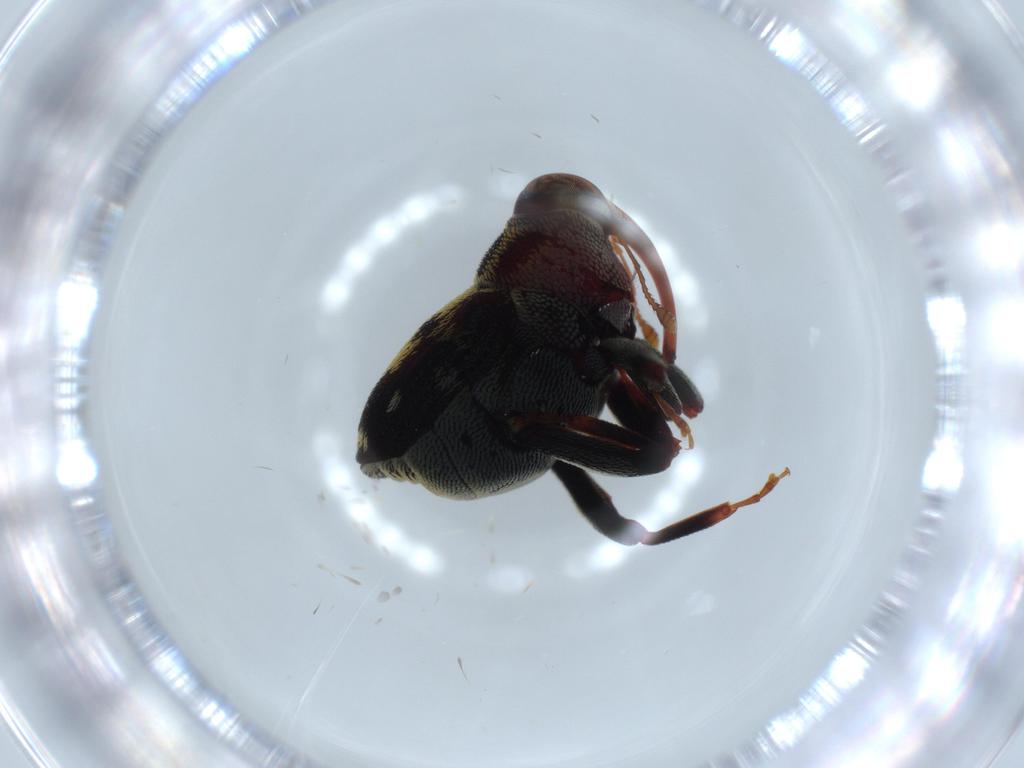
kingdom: Animalia
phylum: Arthropoda
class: Insecta
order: Coleoptera
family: Curculionidae
